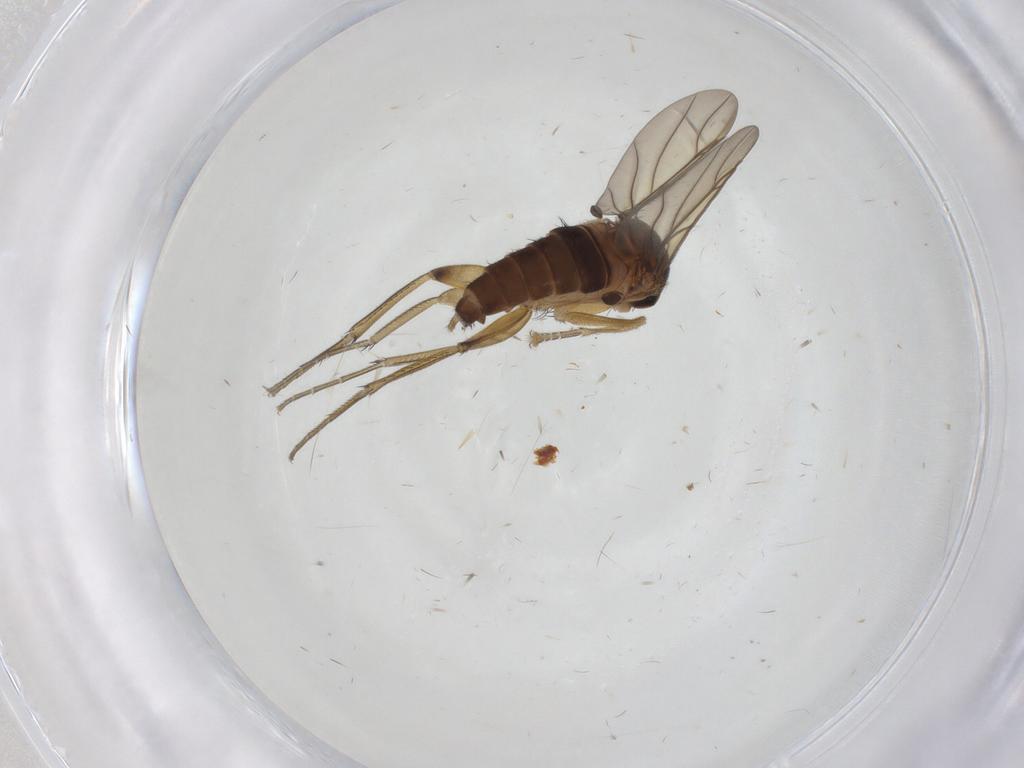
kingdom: Animalia
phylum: Arthropoda
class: Insecta
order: Diptera
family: Phoridae
